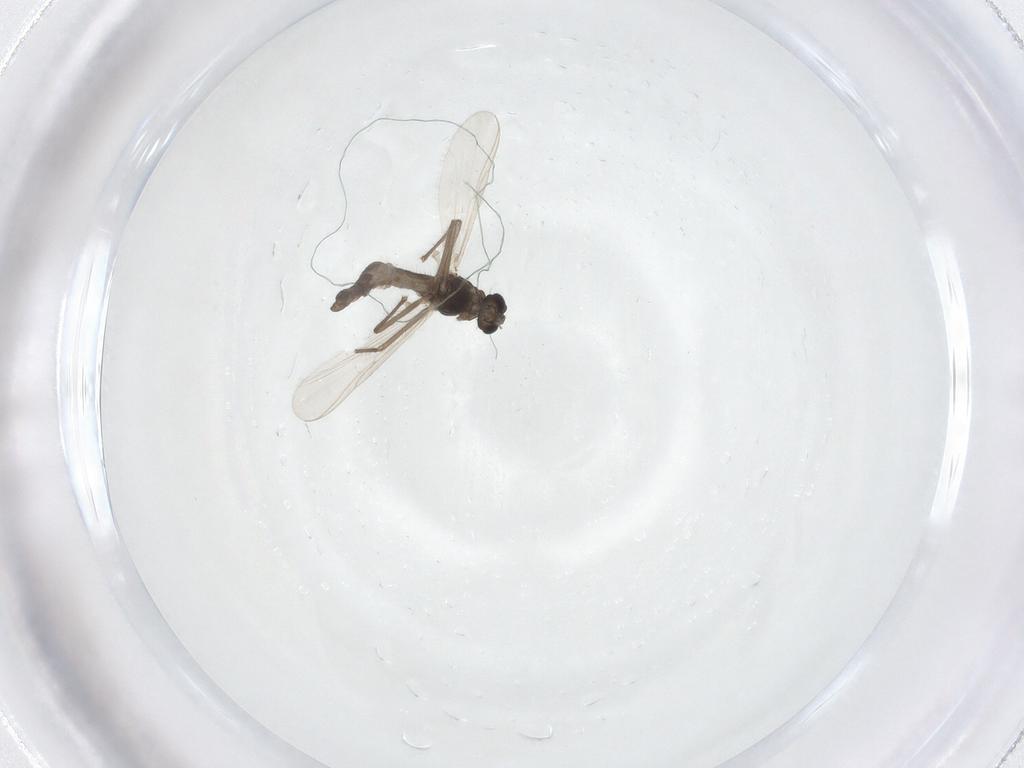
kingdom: Animalia
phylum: Arthropoda
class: Insecta
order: Diptera
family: Chironomidae
